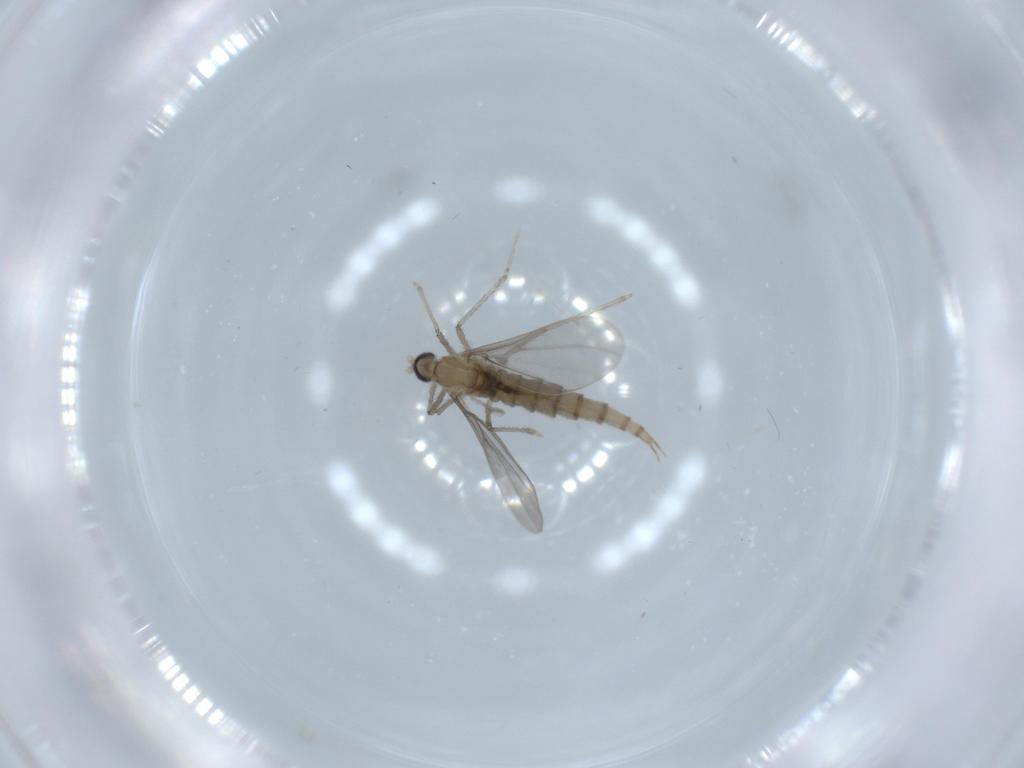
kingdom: Animalia
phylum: Arthropoda
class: Insecta
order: Diptera
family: Cecidomyiidae
